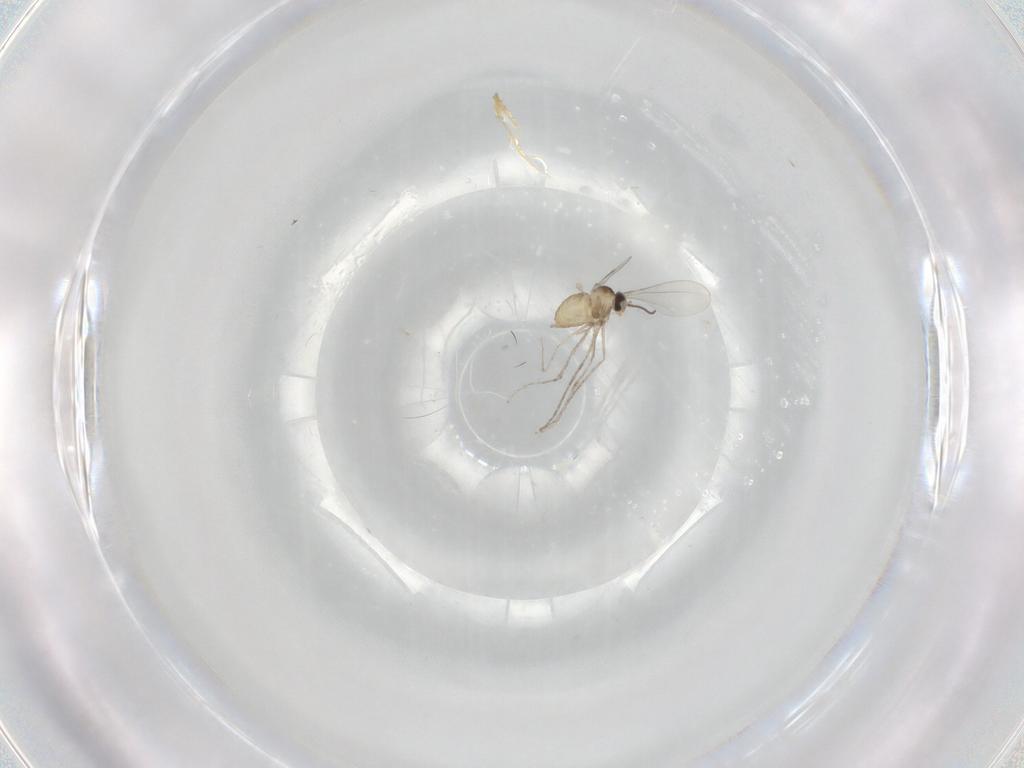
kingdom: Animalia
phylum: Arthropoda
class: Insecta
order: Diptera
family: Cecidomyiidae
